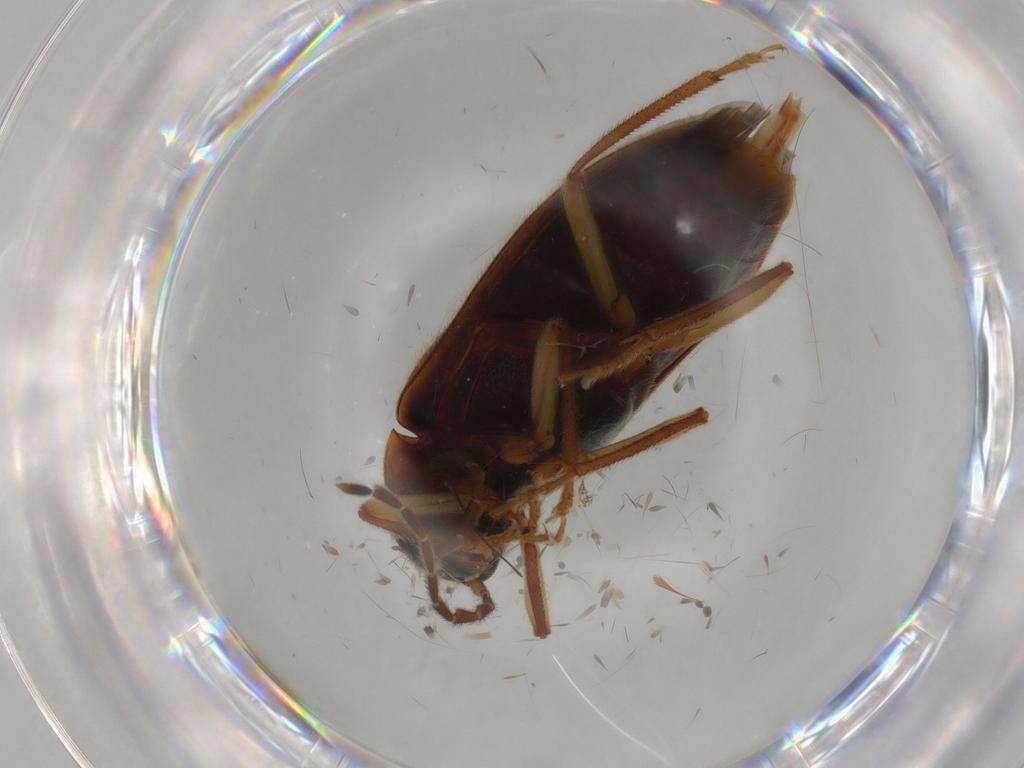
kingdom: Animalia
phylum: Arthropoda
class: Insecta
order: Coleoptera
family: Ptilodactylidae
